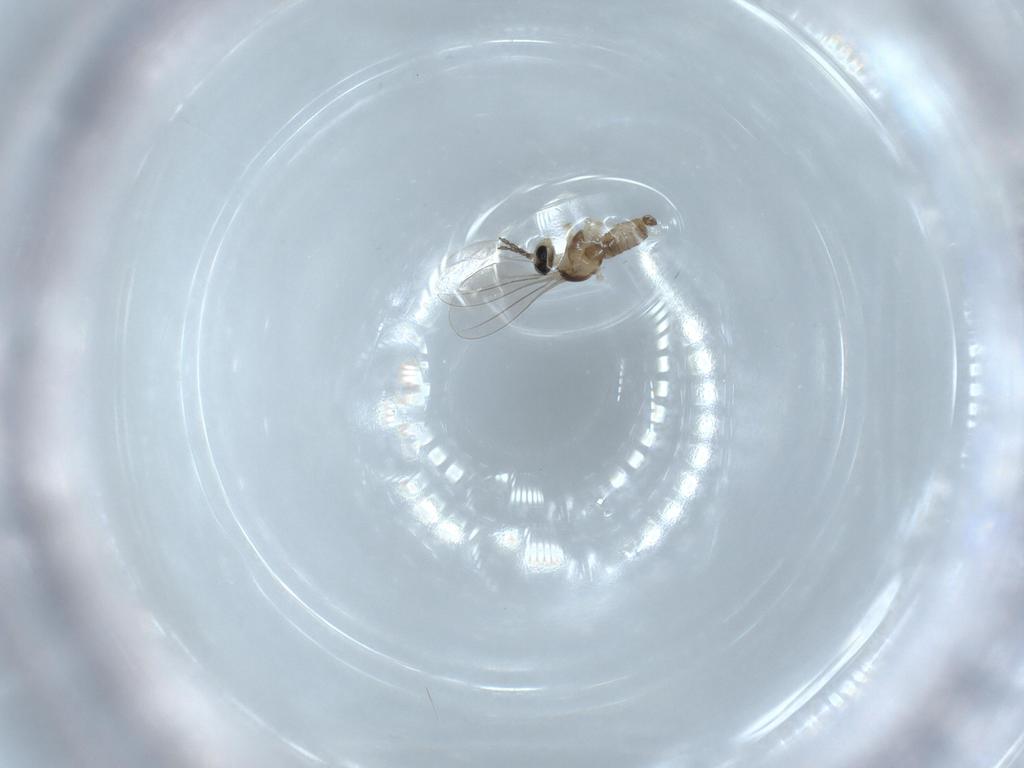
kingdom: Animalia
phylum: Arthropoda
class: Insecta
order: Diptera
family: Cecidomyiidae
